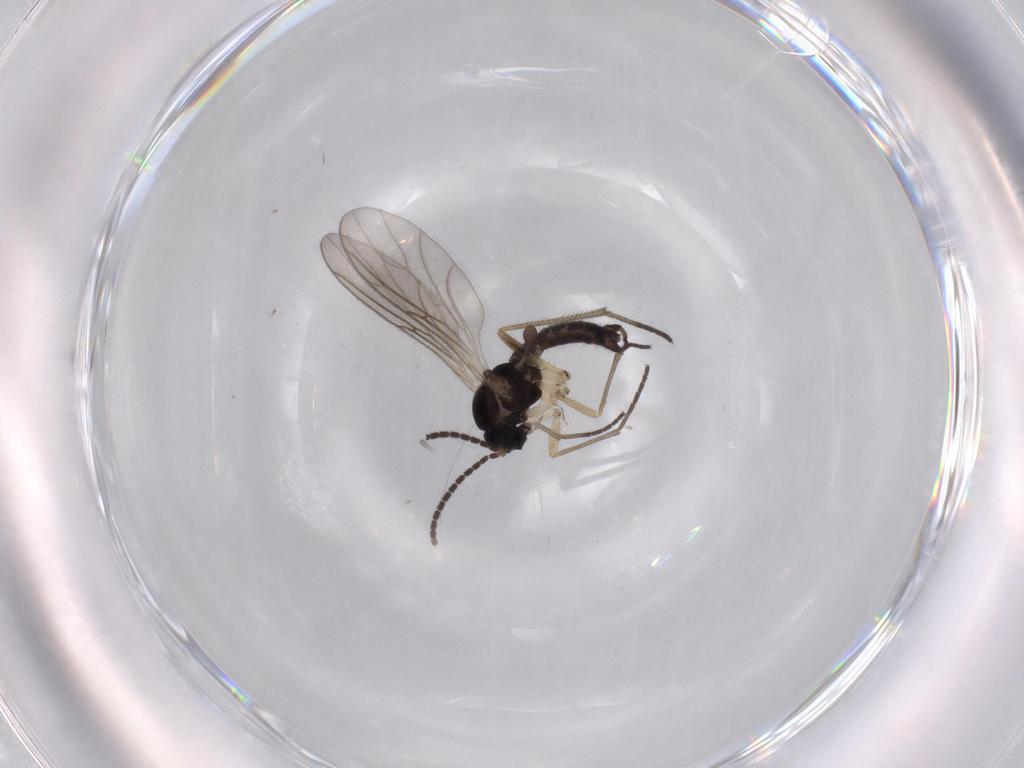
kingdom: Animalia
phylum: Arthropoda
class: Insecta
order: Diptera
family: Sciaridae
